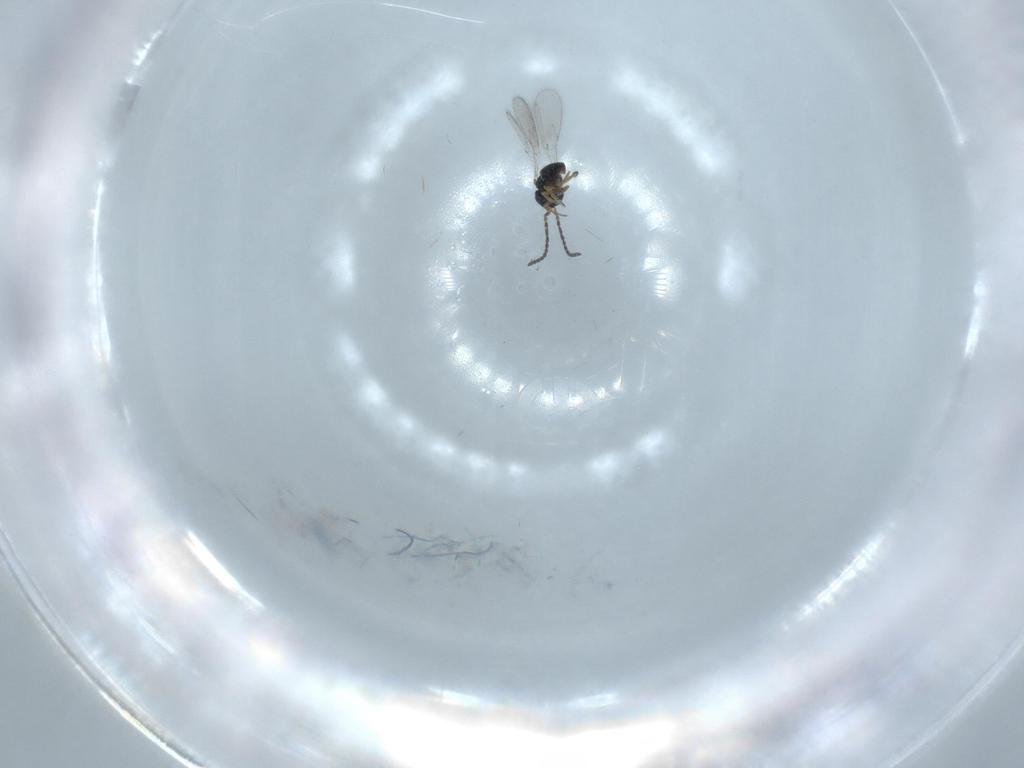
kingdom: Animalia
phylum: Arthropoda
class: Insecta
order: Hymenoptera
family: Scelionidae
